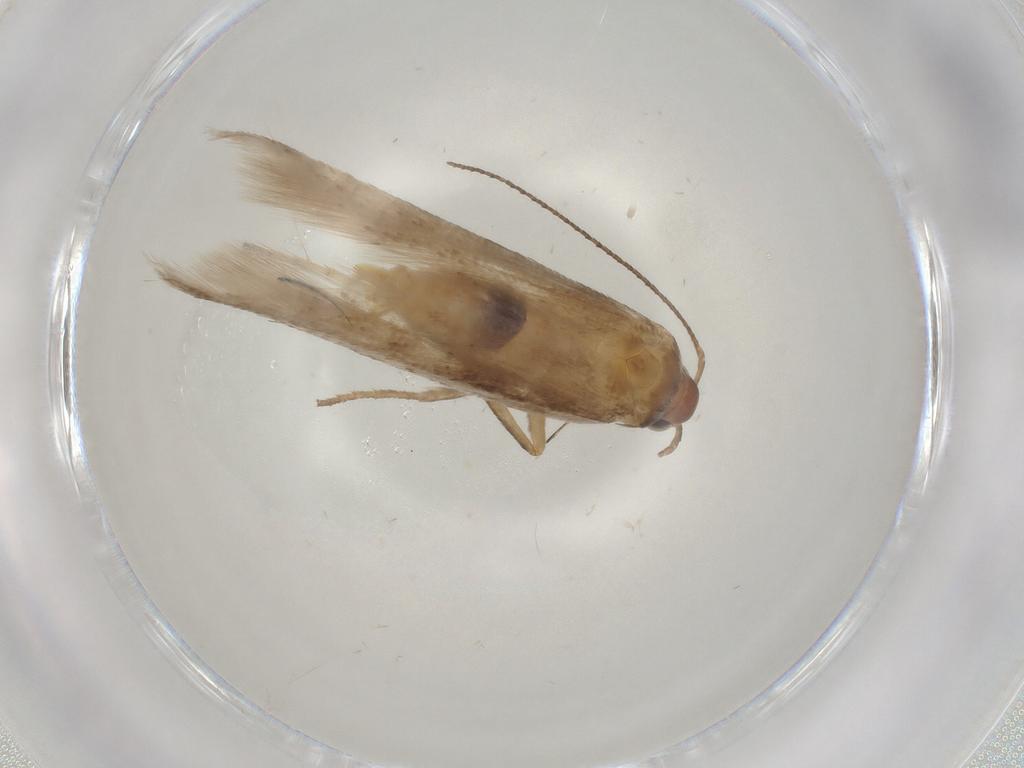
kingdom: Animalia
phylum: Arthropoda
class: Insecta
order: Lepidoptera
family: Gelechiidae
